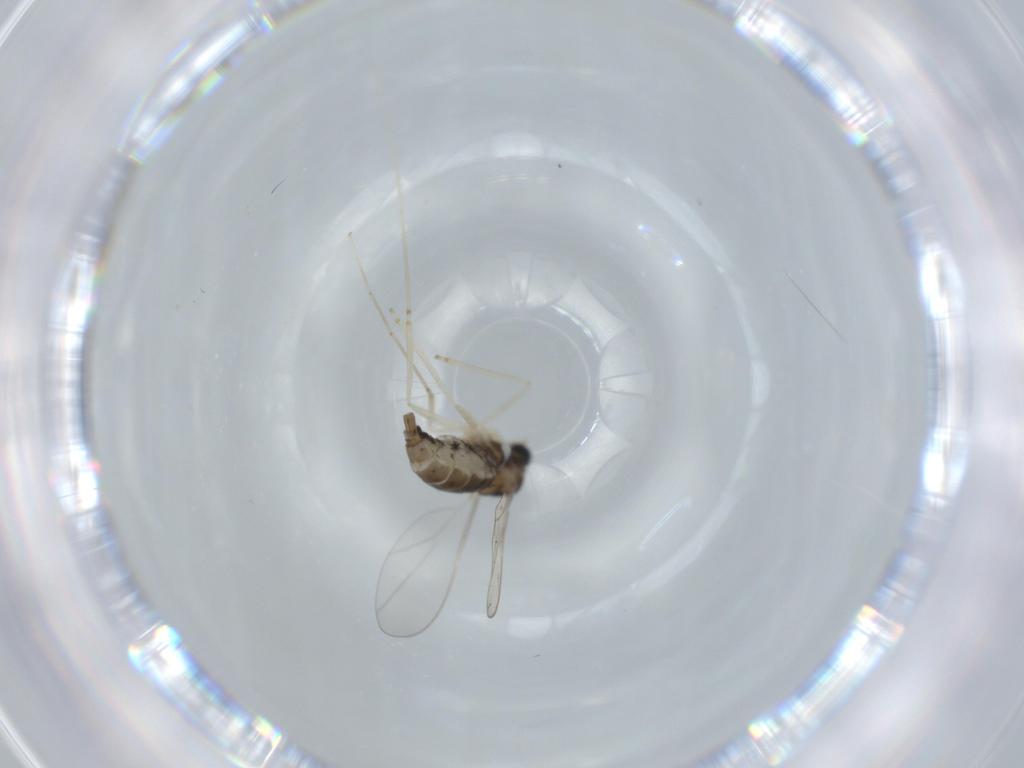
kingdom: Animalia
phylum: Arthropoda
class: Insecta
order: Diptera
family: Sciaridae
